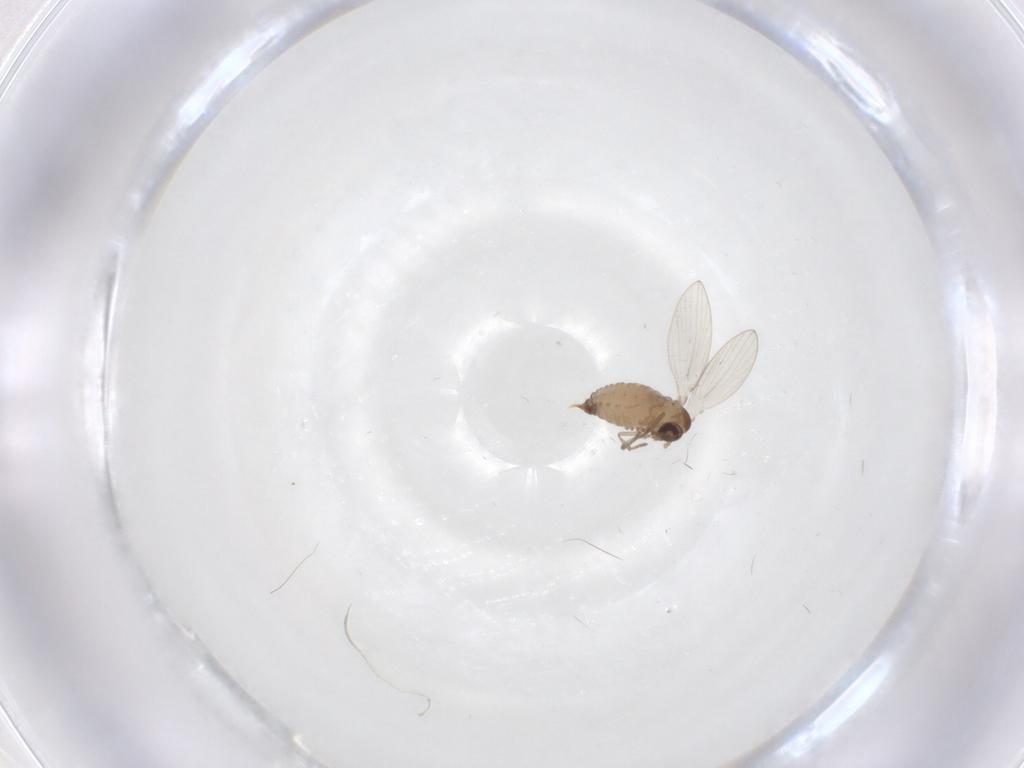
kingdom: Animalia
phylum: Arthropoda
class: Insecta
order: Diptera
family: Psychodidae
